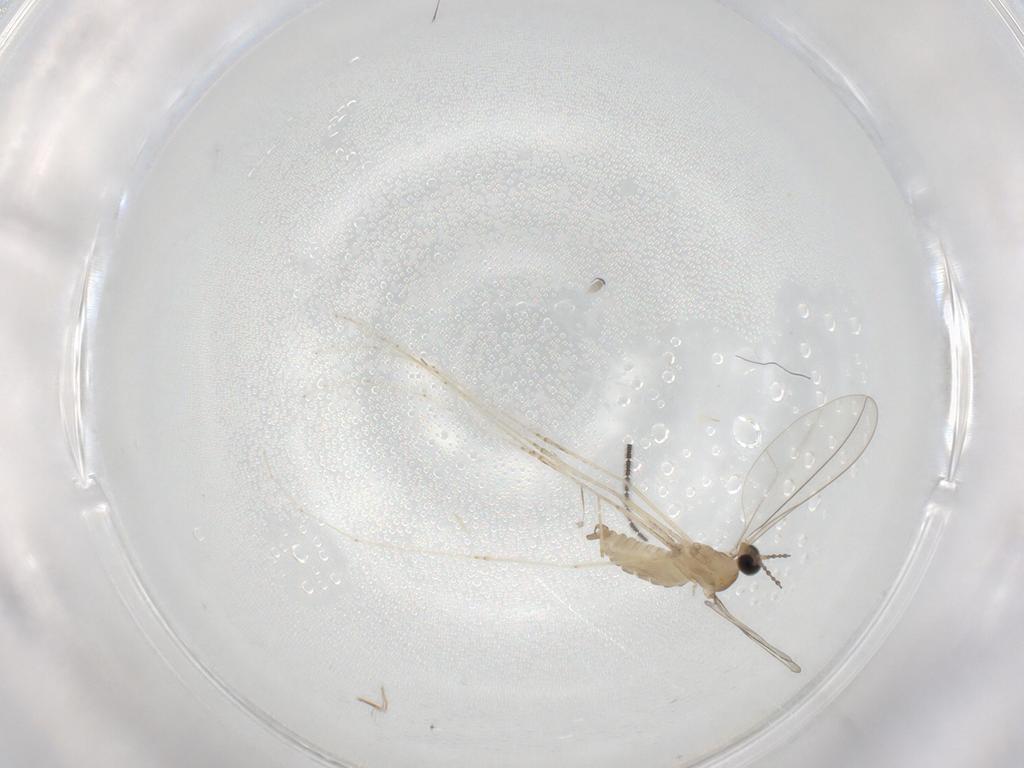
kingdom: Animalia
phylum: Arthropoda
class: Insecta
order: Diptera
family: Cecidomyiidae
